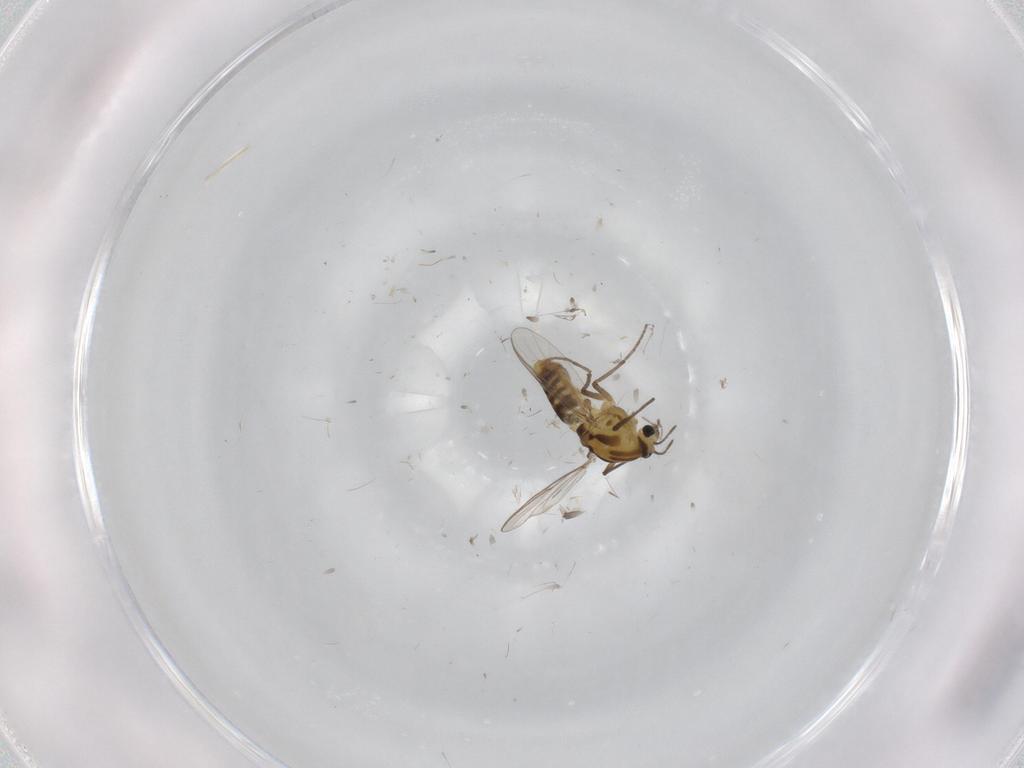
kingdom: Animalia
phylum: Arthropoda
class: Insecta
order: Diptera
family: Chironomidae
